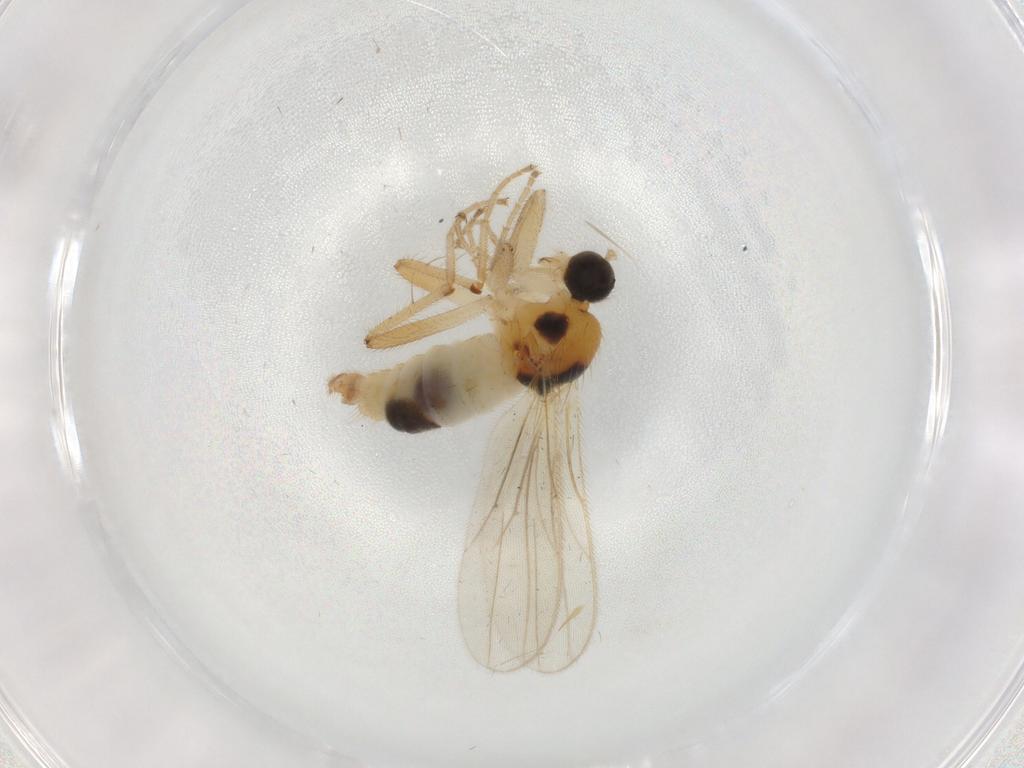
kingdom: Animalia
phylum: Arthropoda
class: Insecta
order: Diptera
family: Hybotidae
